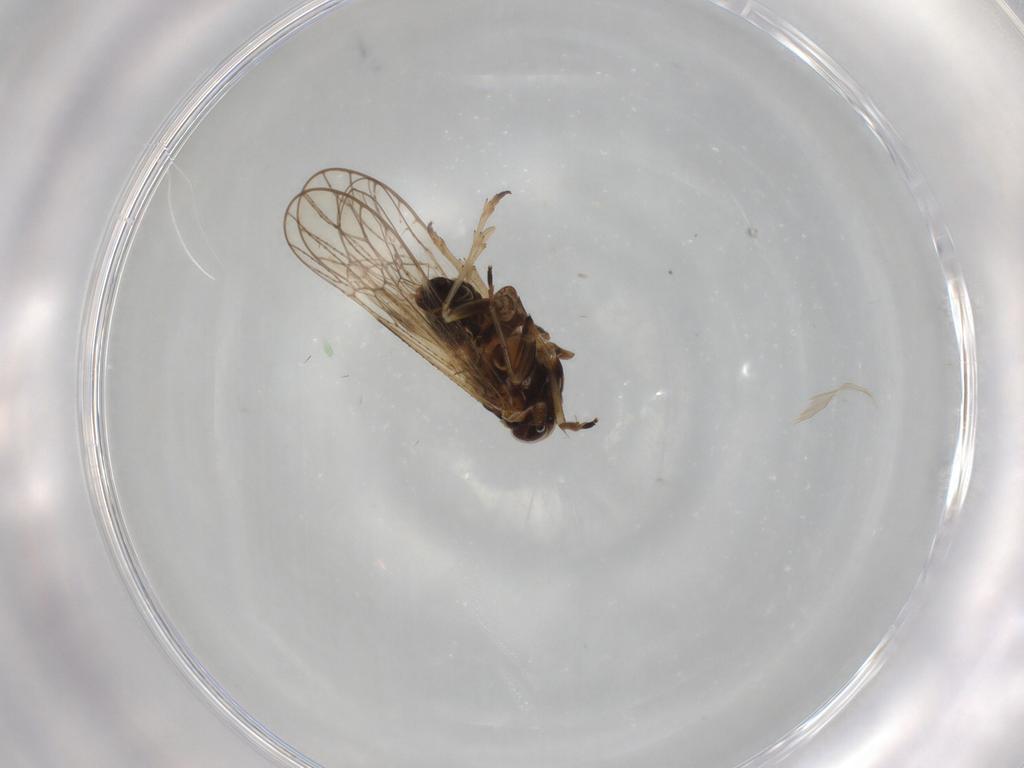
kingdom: Animalia
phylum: Arthropoda
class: Insecta
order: Hemiptera
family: Delphacidae
